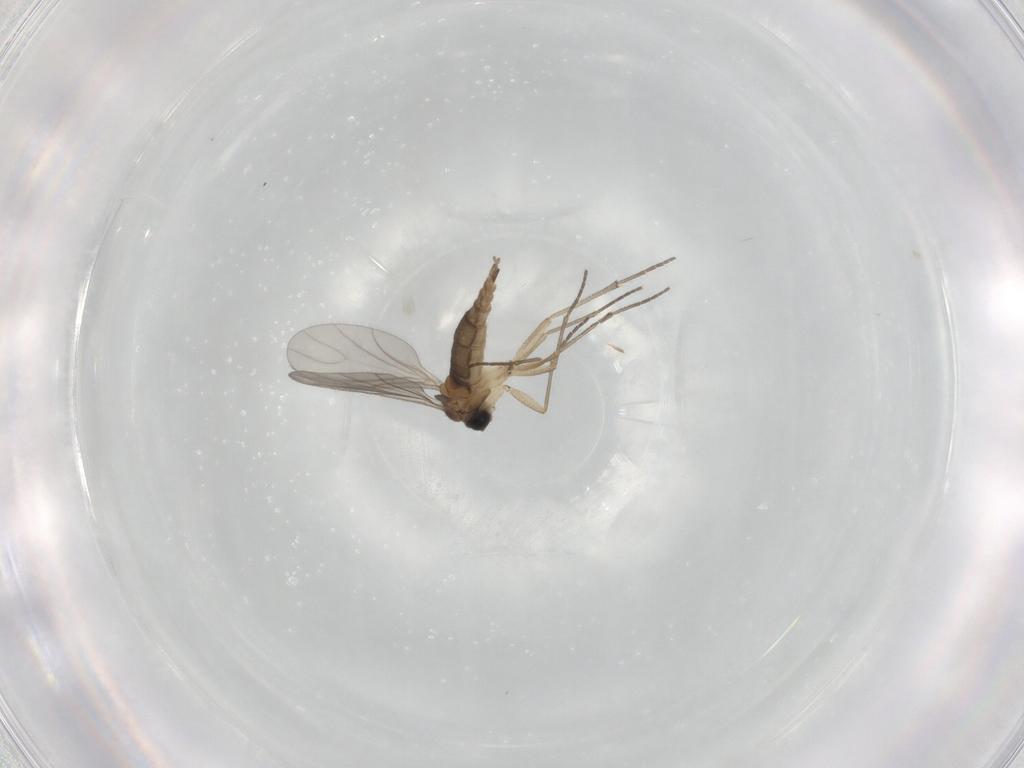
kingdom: Animalia
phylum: Arthropoda
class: Insecta
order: Diptera
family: Sciaridae
